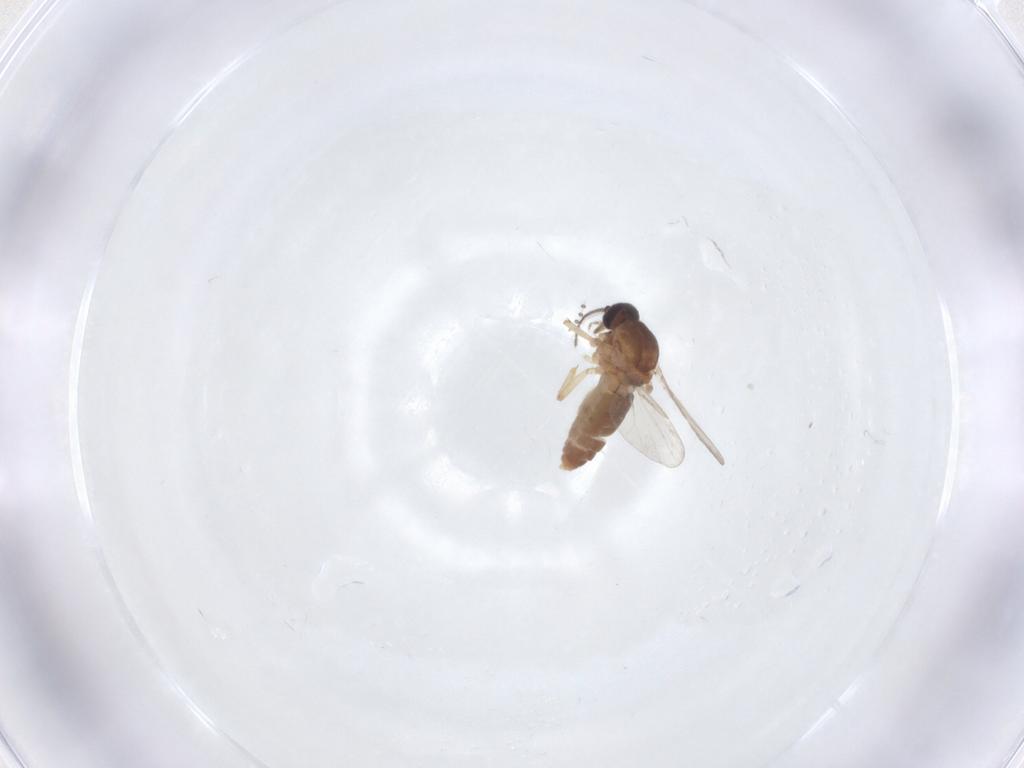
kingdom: Animalia
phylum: Arthropoda
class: Insecta
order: Diptera
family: Ceratopogonidae
